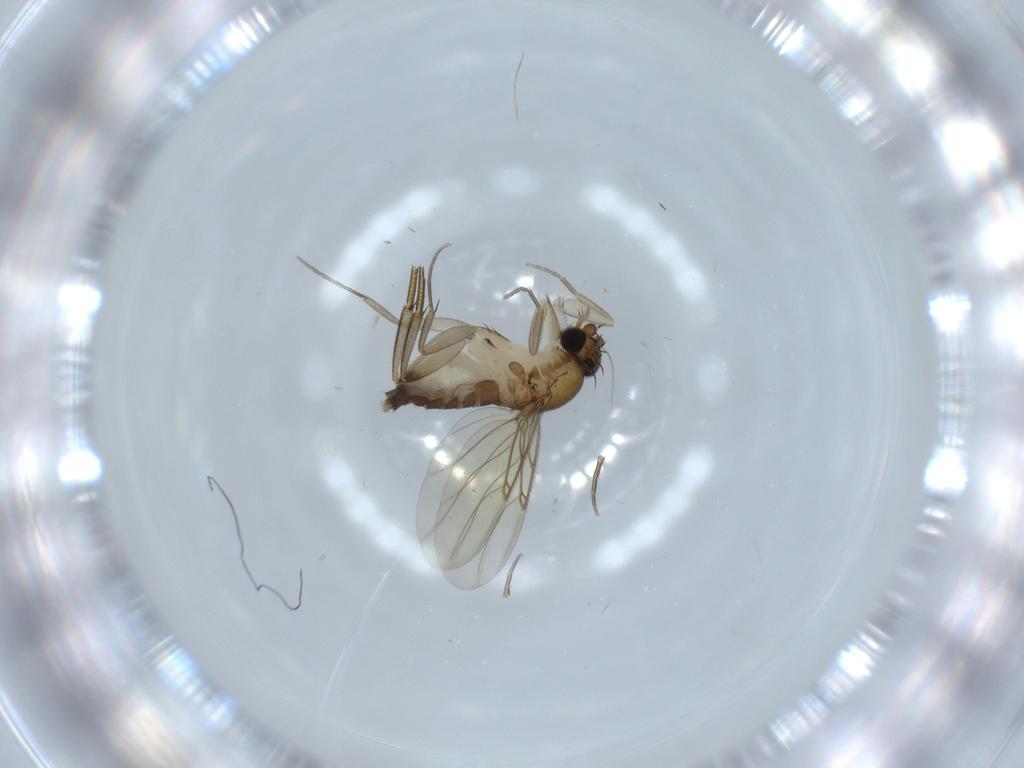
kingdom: Animalia
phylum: Arthropoda
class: Insecta
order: Diptera
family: Phoridae
